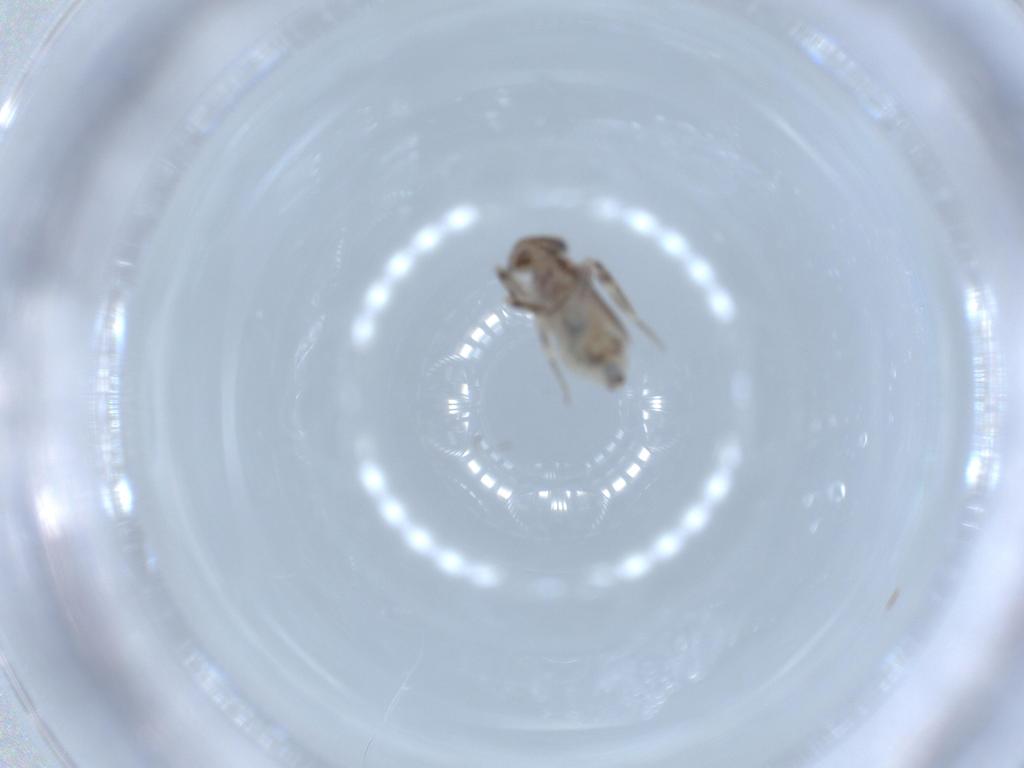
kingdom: Animalia
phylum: Arthropoda
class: Insecta
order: Psocodea
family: Lepidopsocidae
